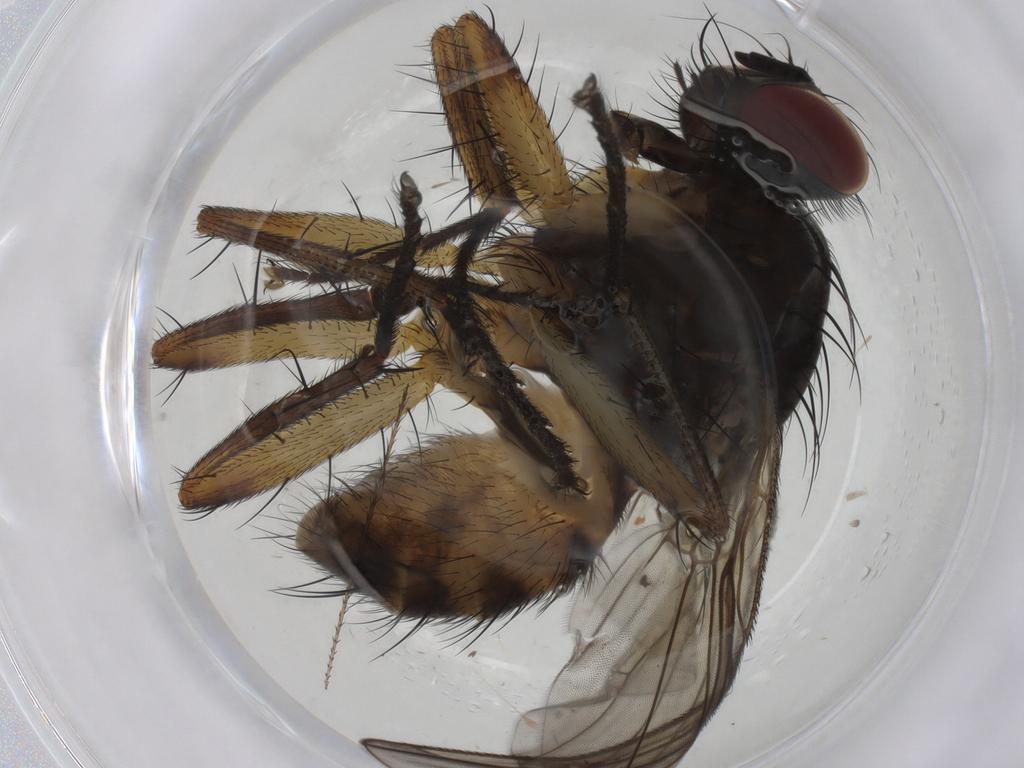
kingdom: Animalia
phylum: Arthropoda
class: Insecta
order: Diptera
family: Muscidae
